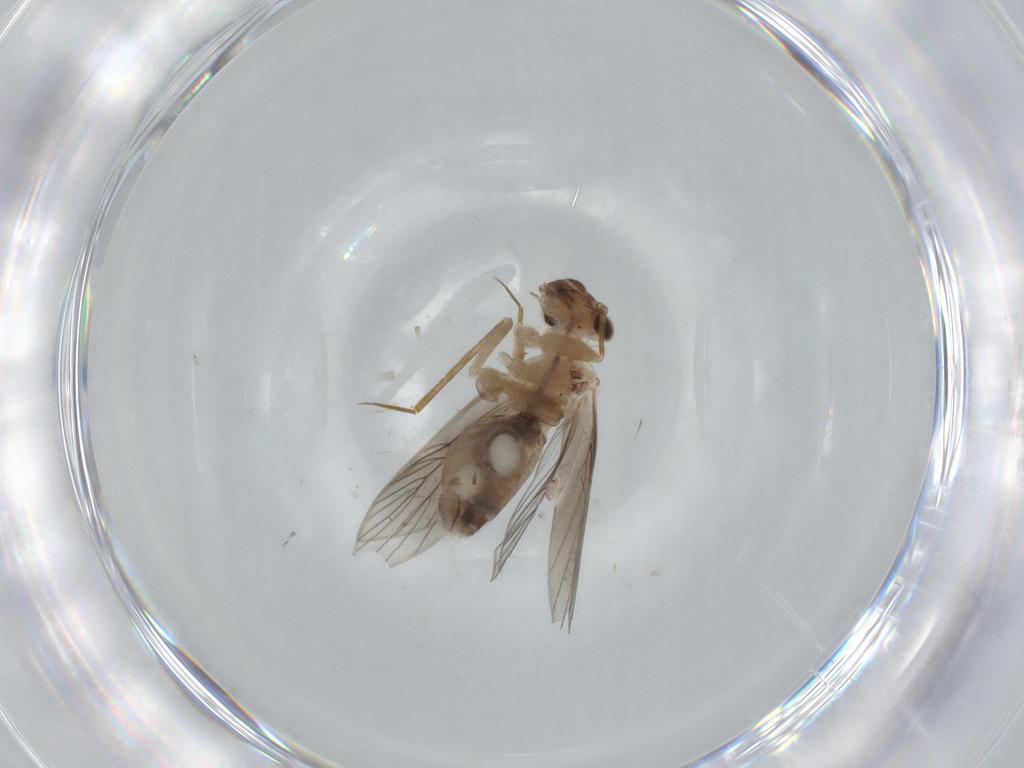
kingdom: Animalia
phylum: Arthropoda
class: Insecta
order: Psocodea
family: Lepidopsocidae
